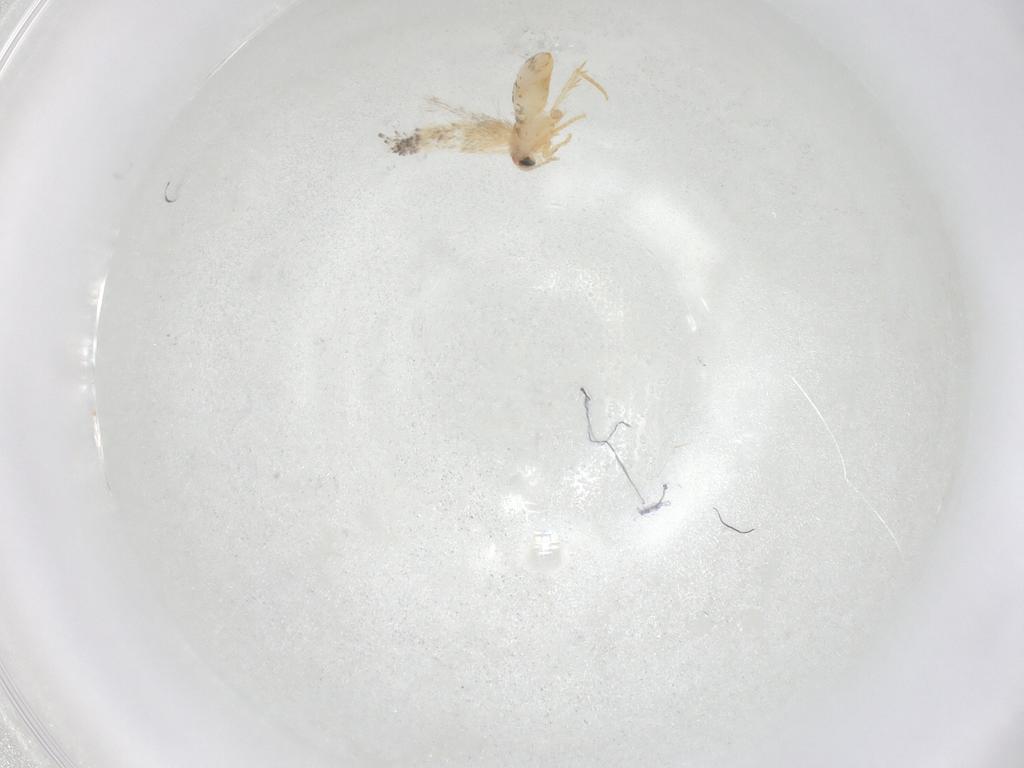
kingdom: Animalia
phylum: Arthropoda
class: Insecta
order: Lepidoptera
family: Nepticulidae
